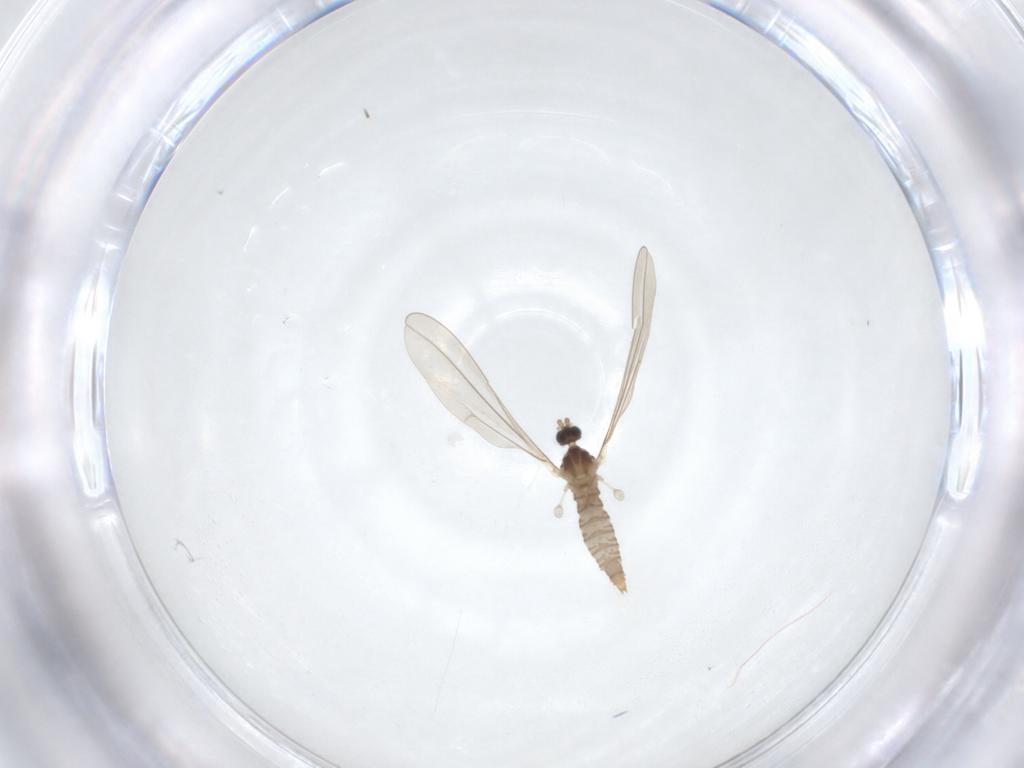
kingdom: Animalia
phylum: Arthropoda
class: Insecta
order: Diptera
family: Cecidomyiidae
